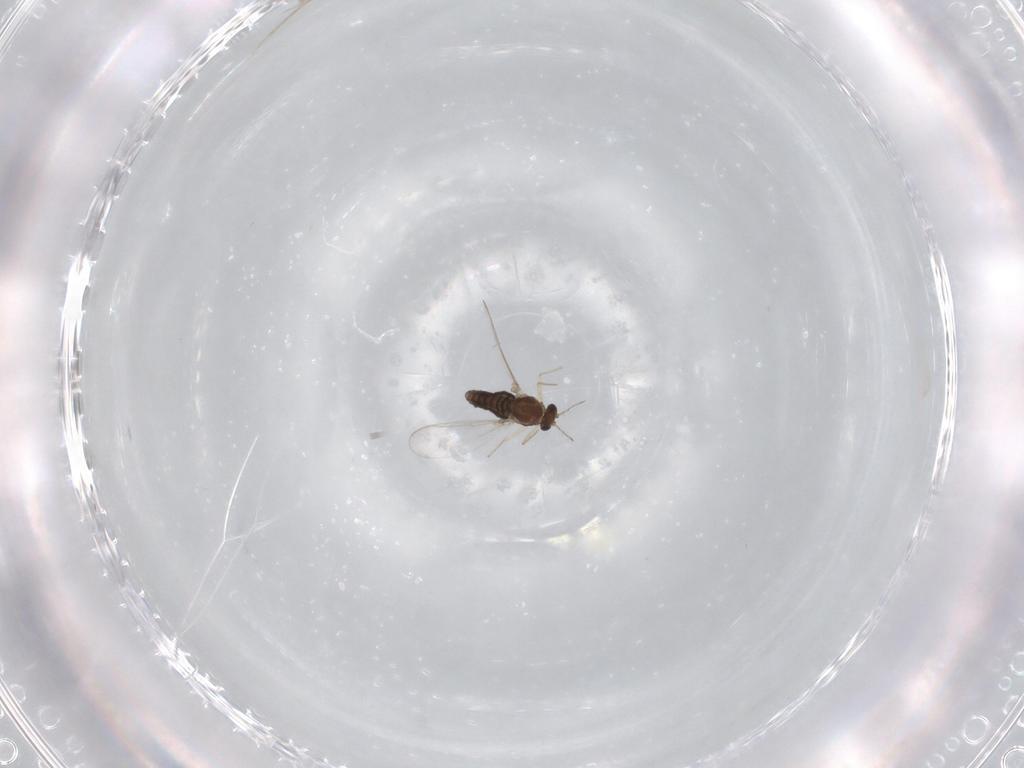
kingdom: Animalia
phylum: Arthropoda
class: Insecta
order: Diptera
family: Chironomidae
